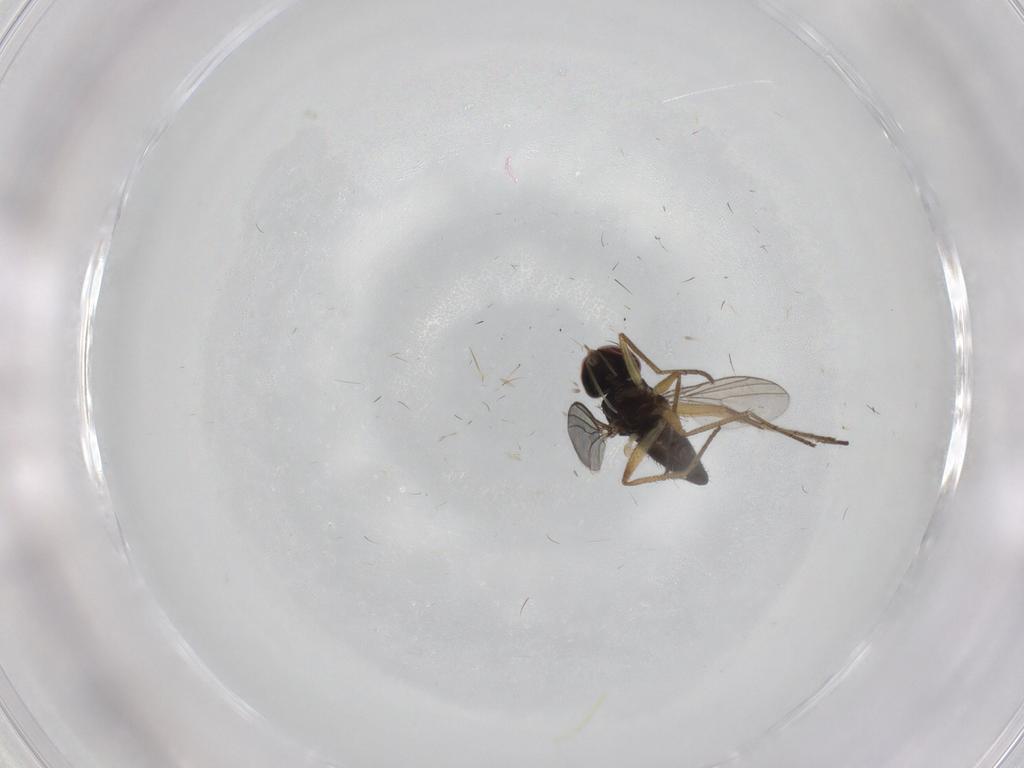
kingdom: Animalia
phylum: Arthropoda
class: Insecta
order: Diptera
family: Dolichopodidae
